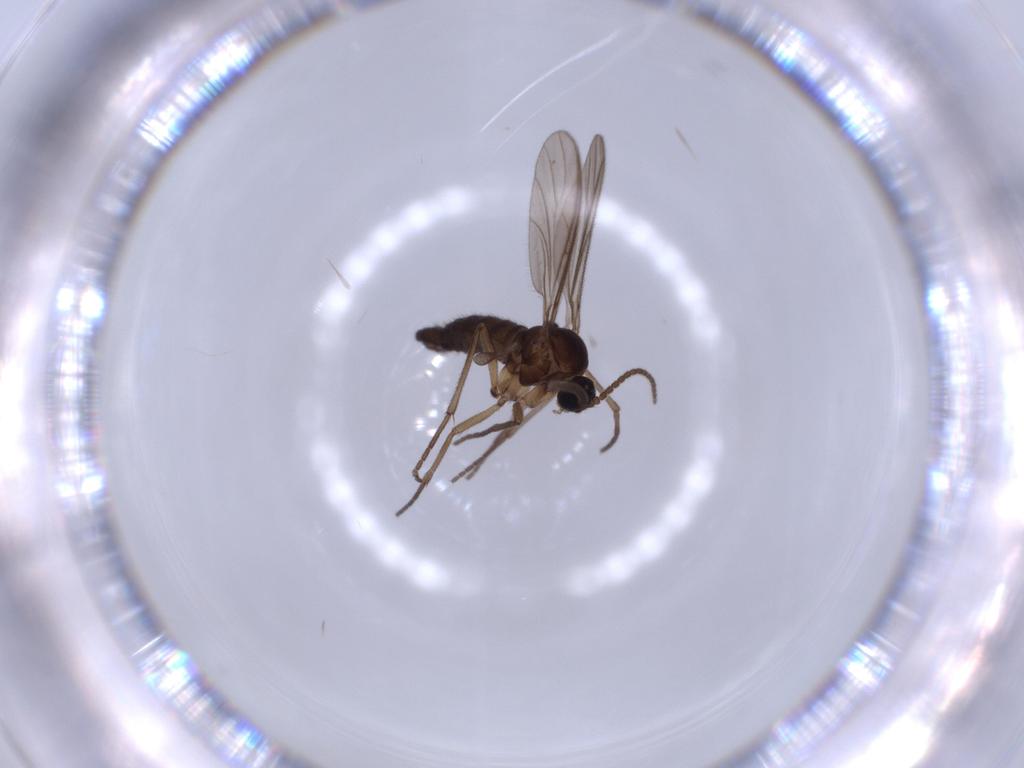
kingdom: Animalia
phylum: Arthropoda
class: Insecta
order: Diptera
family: Sciaridae
